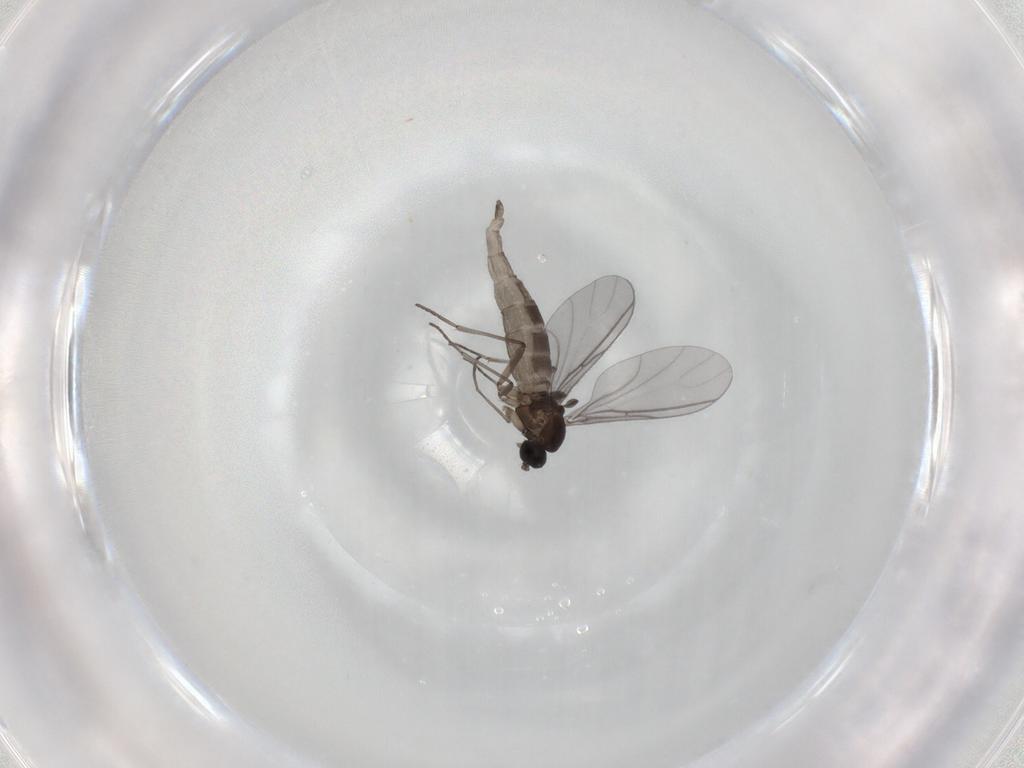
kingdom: Animalia
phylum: Arthropoda
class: Insecta
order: Diptera
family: Cecidomyiidae
